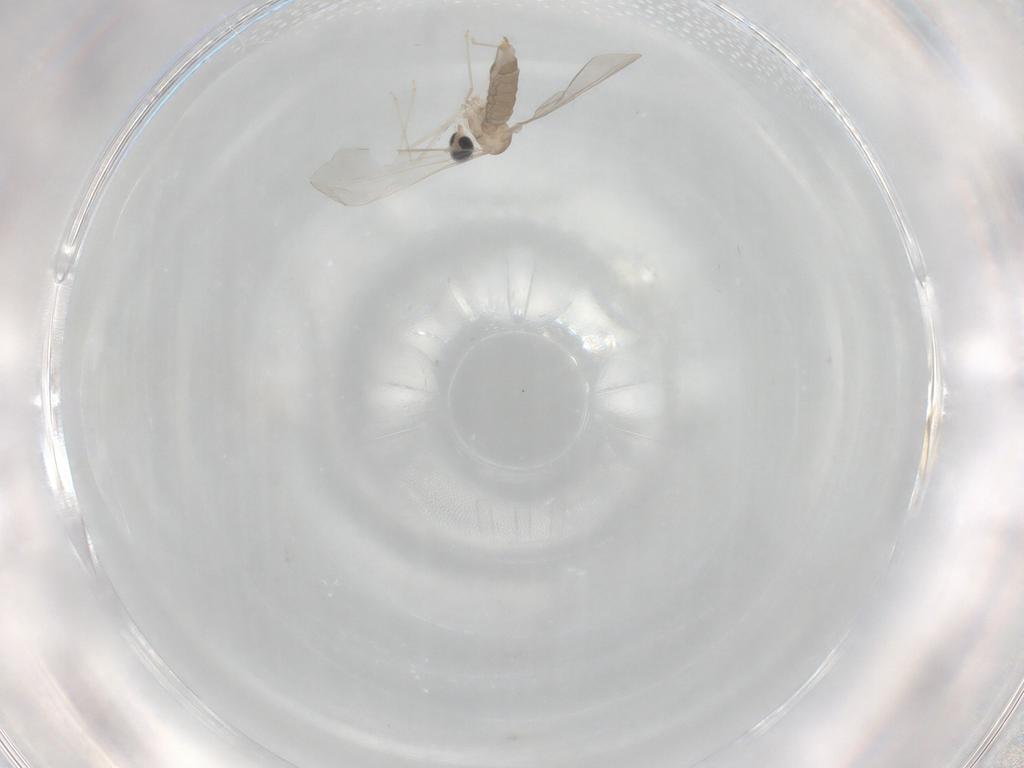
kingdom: Animalia
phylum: Arthropoda
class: Insecta
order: Diptera
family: Cecidomyiidae
